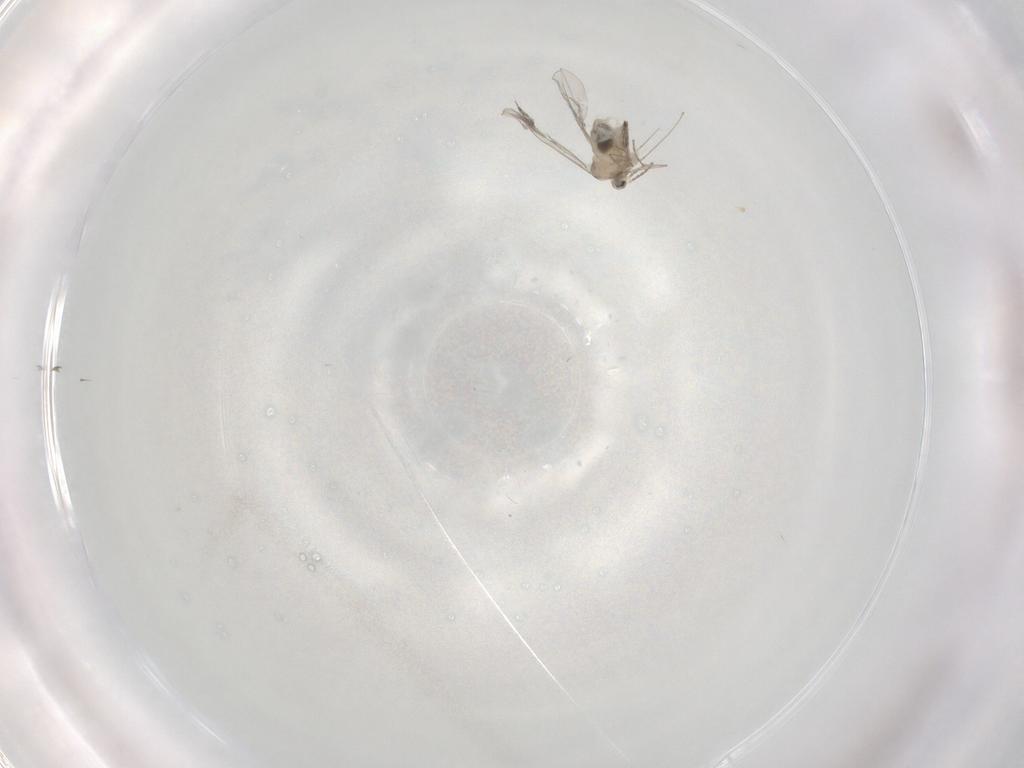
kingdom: Animalia
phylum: Arthropoda
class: Insecta
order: Diptera
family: Cecidomyiidae
